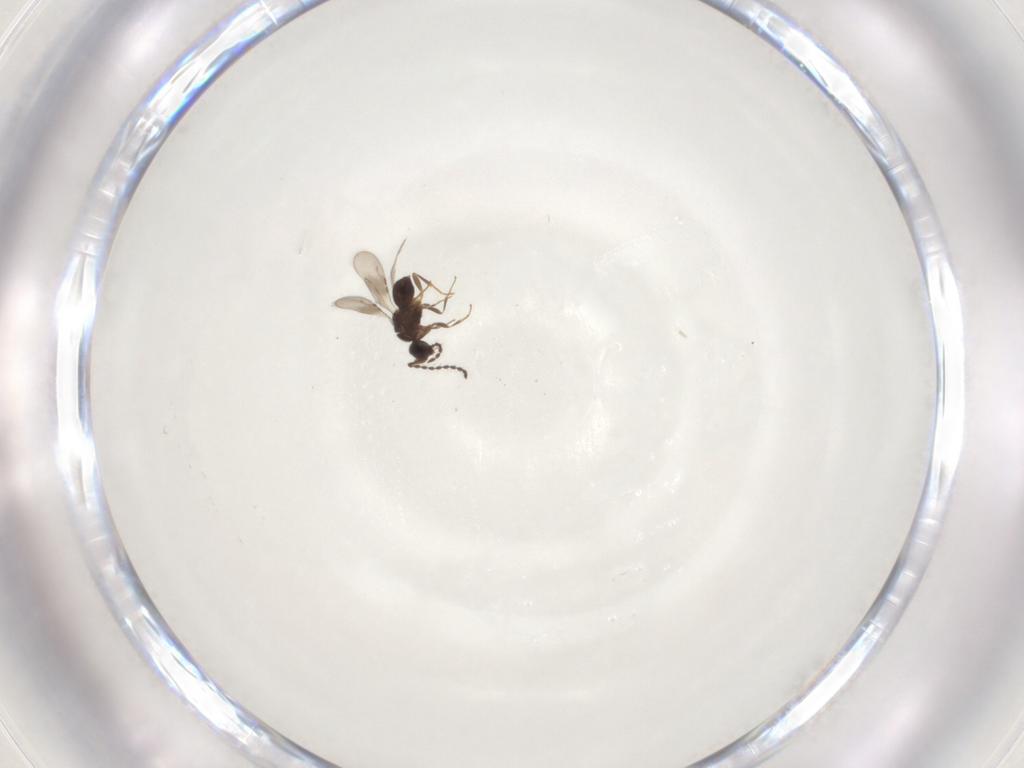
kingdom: Animalia
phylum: Arthropoda
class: Insecta
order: Hymenoptera
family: Ceraphronidae
